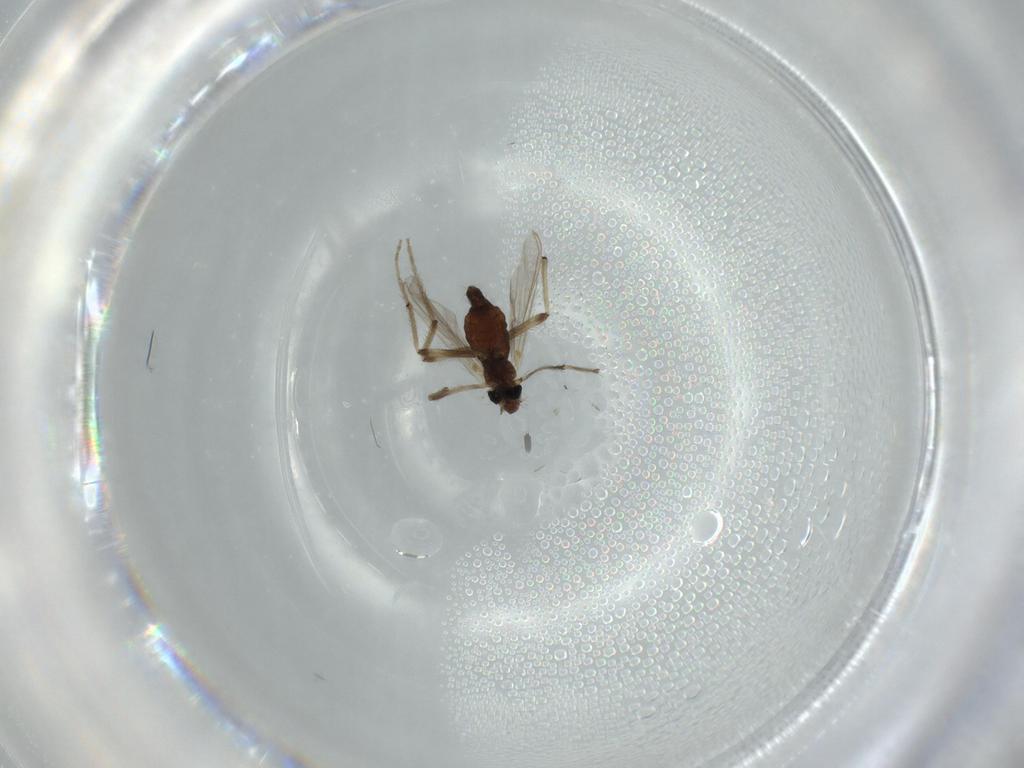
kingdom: Animalia
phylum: Arthropoda
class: Insecta
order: Diptera
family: Chironomidae
